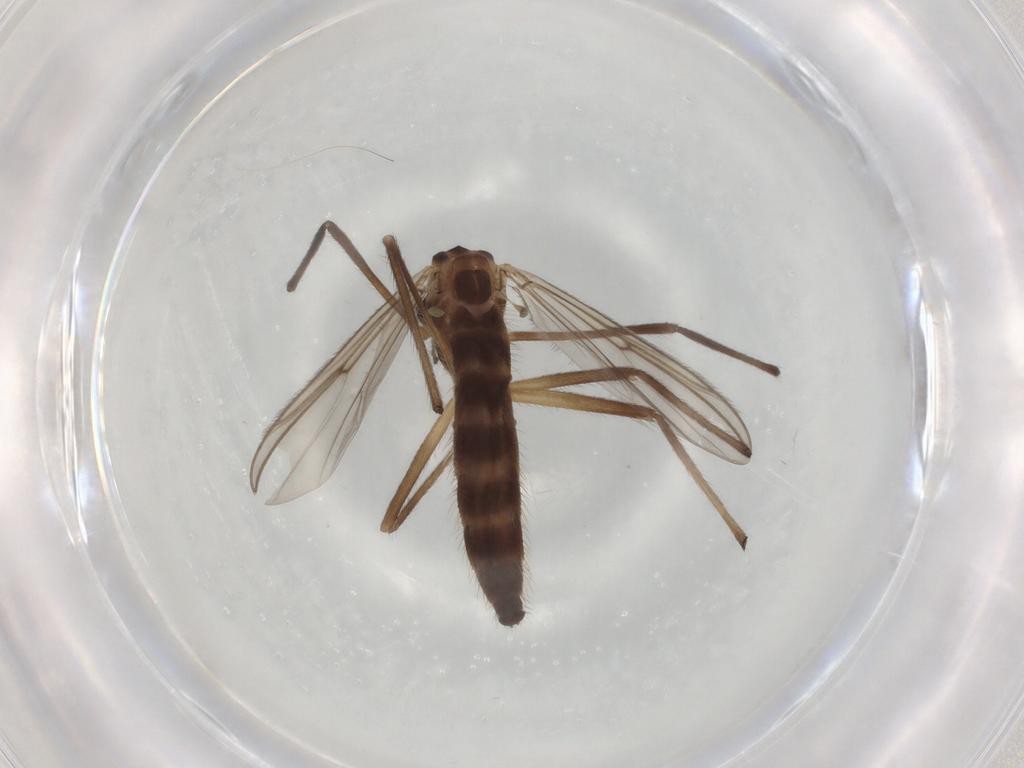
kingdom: Animalia
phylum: Arthropoda
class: Insecta
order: Diptera
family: Chironomidae
